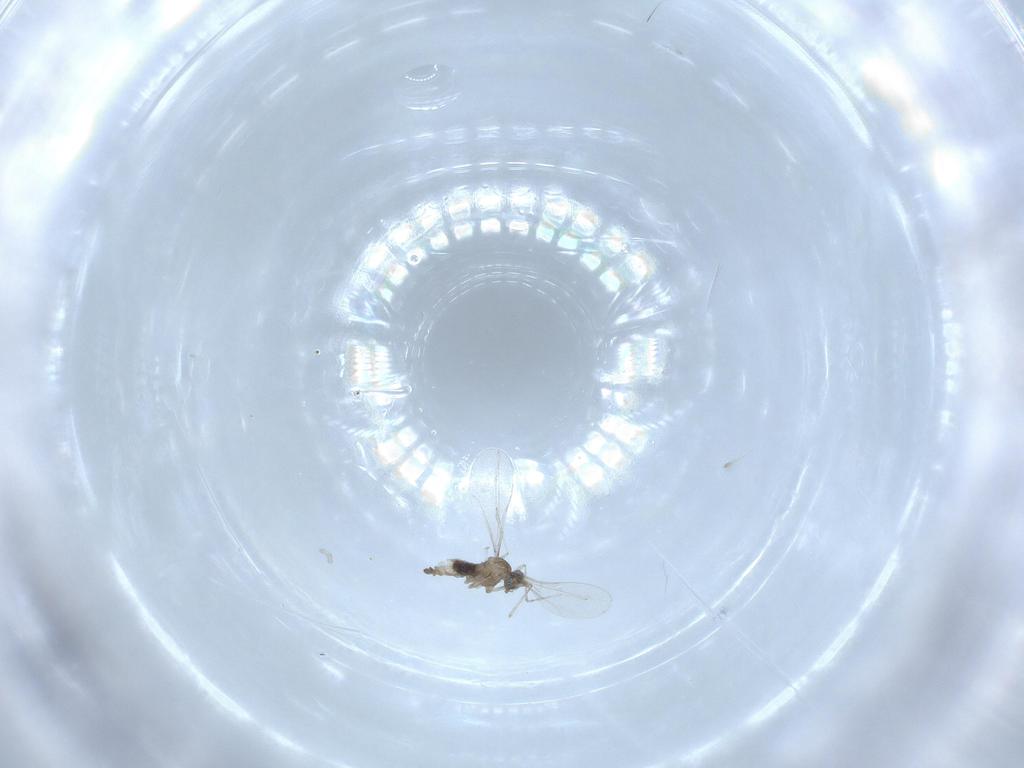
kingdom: Animalia
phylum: Arthropoda
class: Insecta
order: Diptera
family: Cecidomyiidae
